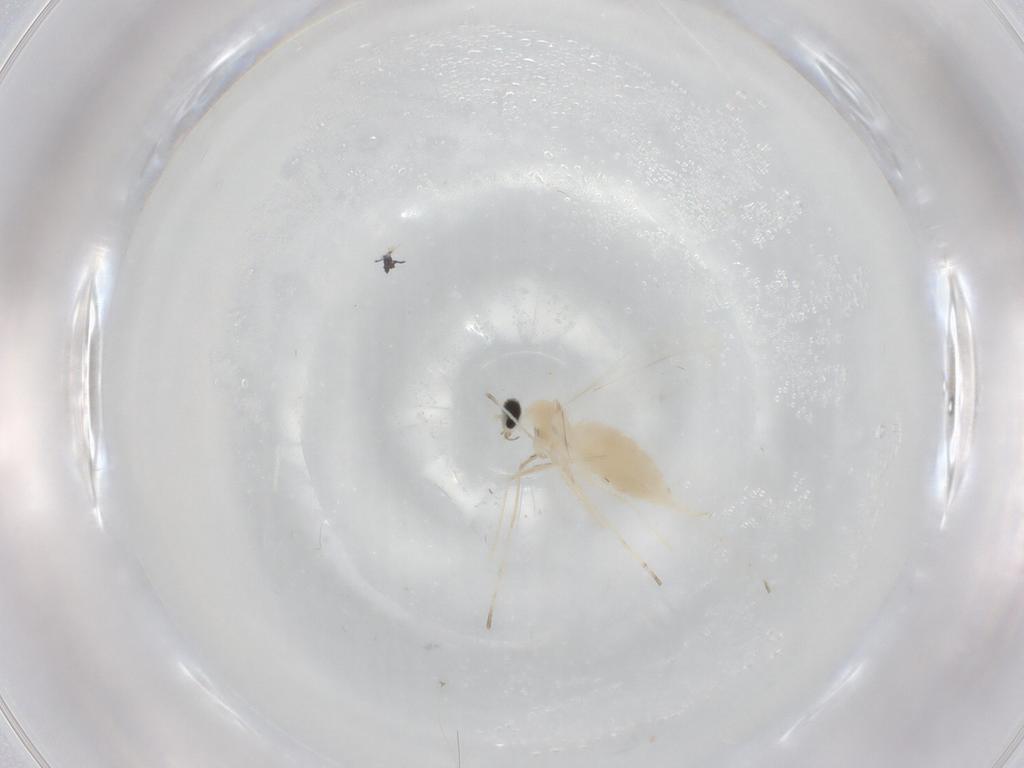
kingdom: Animalia
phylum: Arthropoda
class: Insecta
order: Diptera
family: Cecidomyiidae
